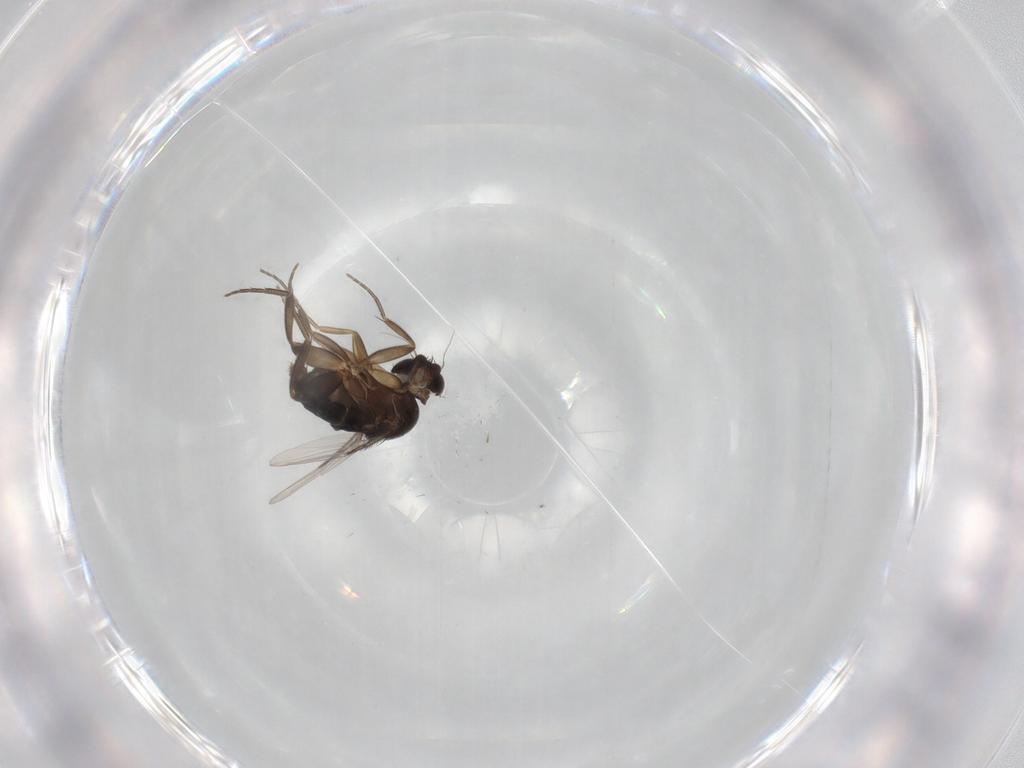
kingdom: Animalia
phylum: Arthropoda
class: Insecta
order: Diptera
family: Phoridae
